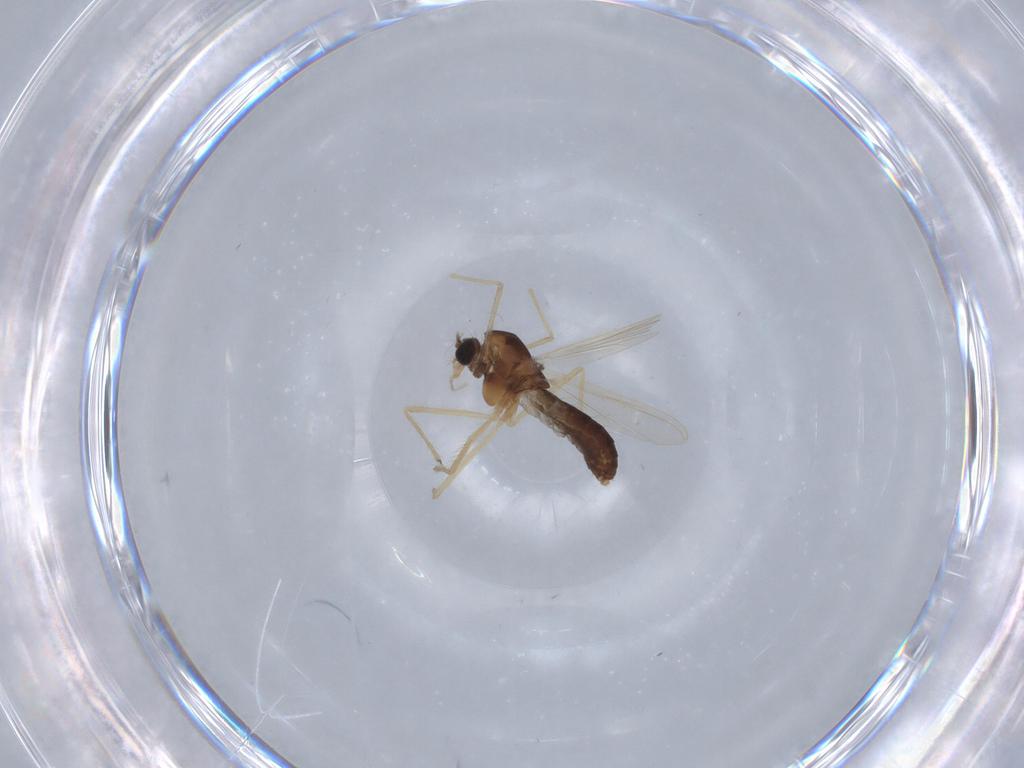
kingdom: Animalia
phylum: Arthropoda
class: Insecta
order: Diptera
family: Chironomidae
